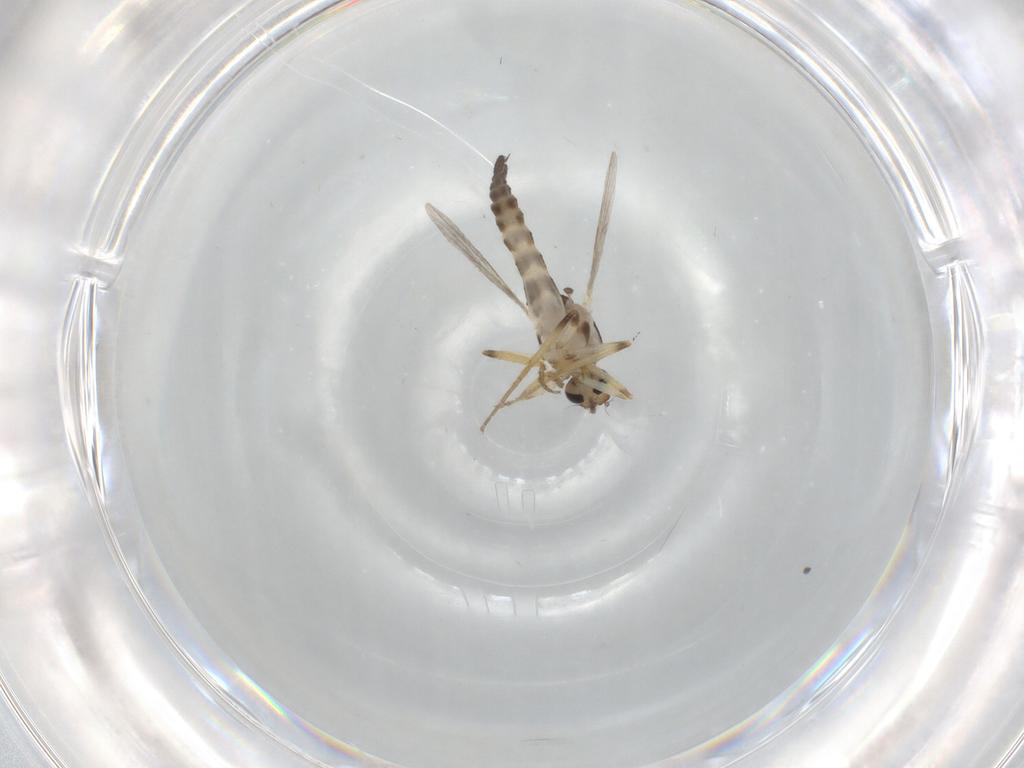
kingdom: Animalia
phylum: Arthropoda
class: Insecta
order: Diptera
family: Ceratopogonidae
